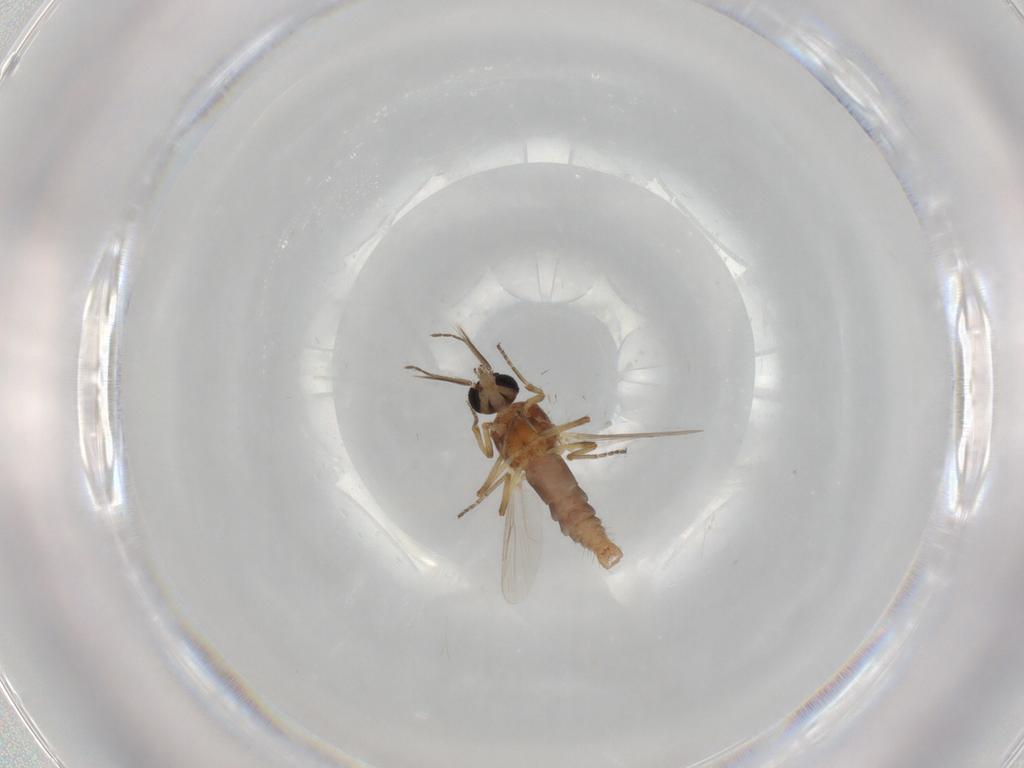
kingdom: Animalia
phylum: Arthropoda
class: Insecta
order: Diptera
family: Ceratopogonidae
